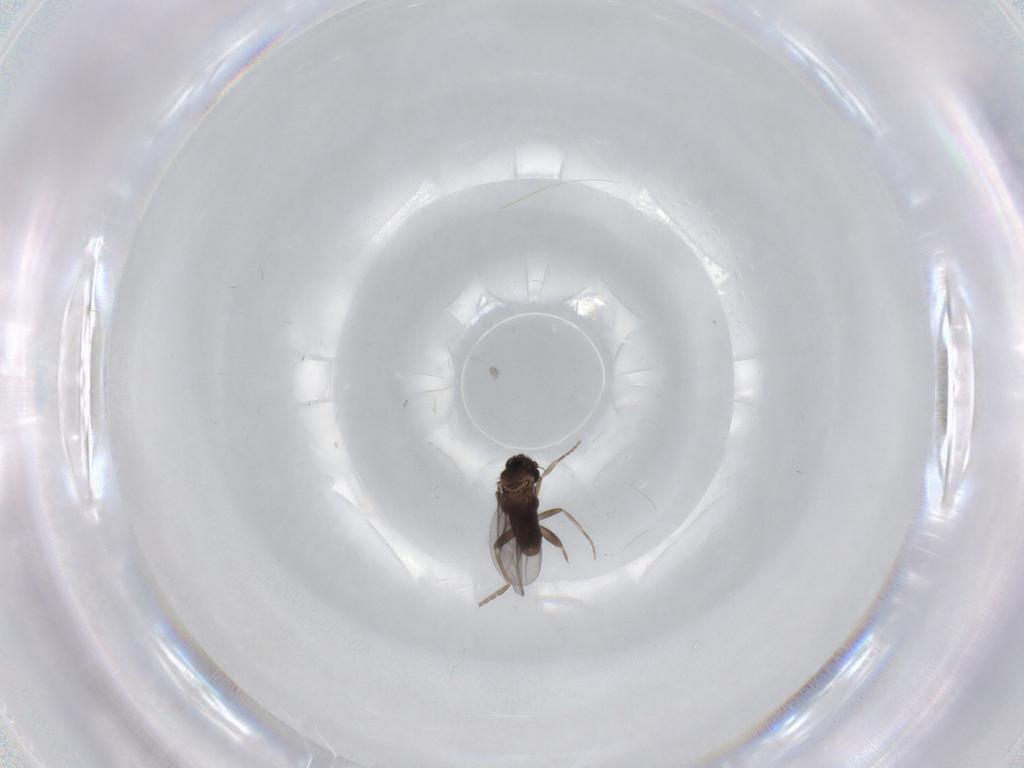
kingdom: Animalia
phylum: Arthropoda
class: Insecta
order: Diptera
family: Phoridae
